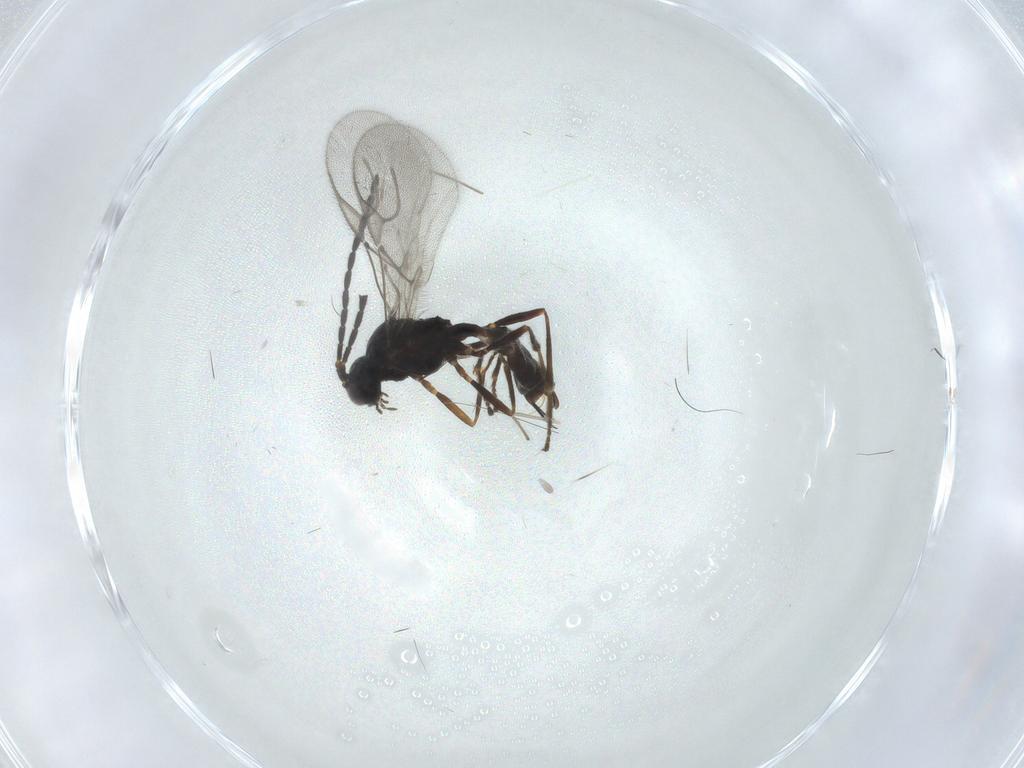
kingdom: Animalia
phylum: Arthropoda
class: Insecta
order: Hymenoptera
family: Braconidae
